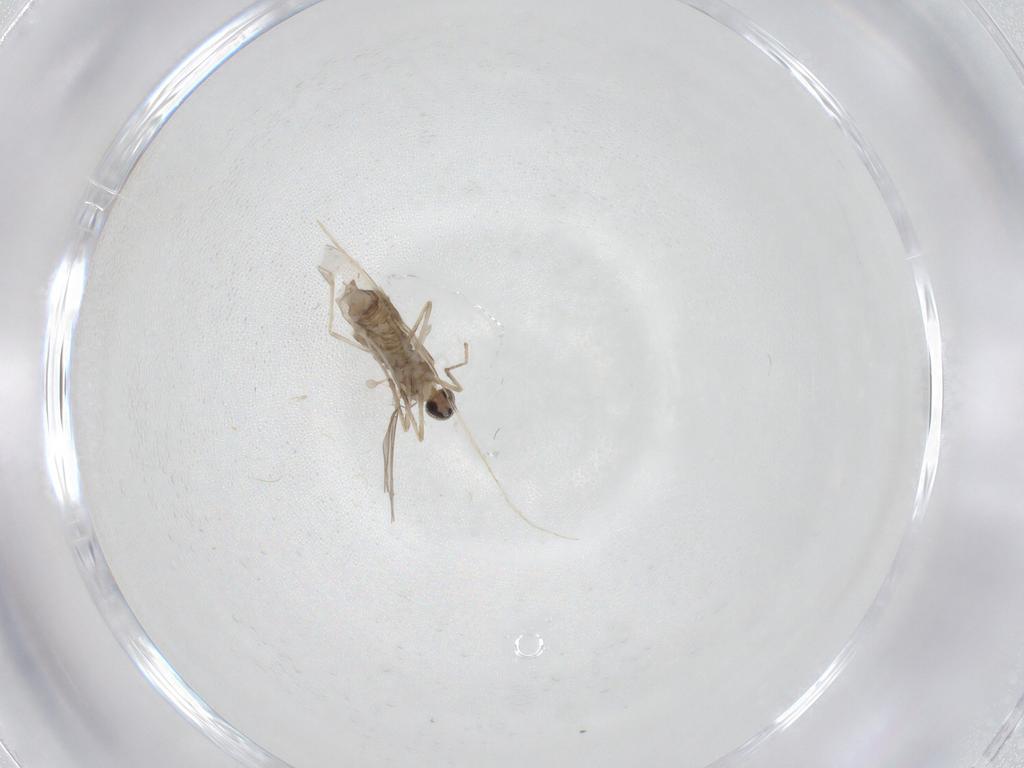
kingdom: Animalia
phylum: Arthropoda
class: Insecta
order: Diptera
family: Cecidomyiidae
